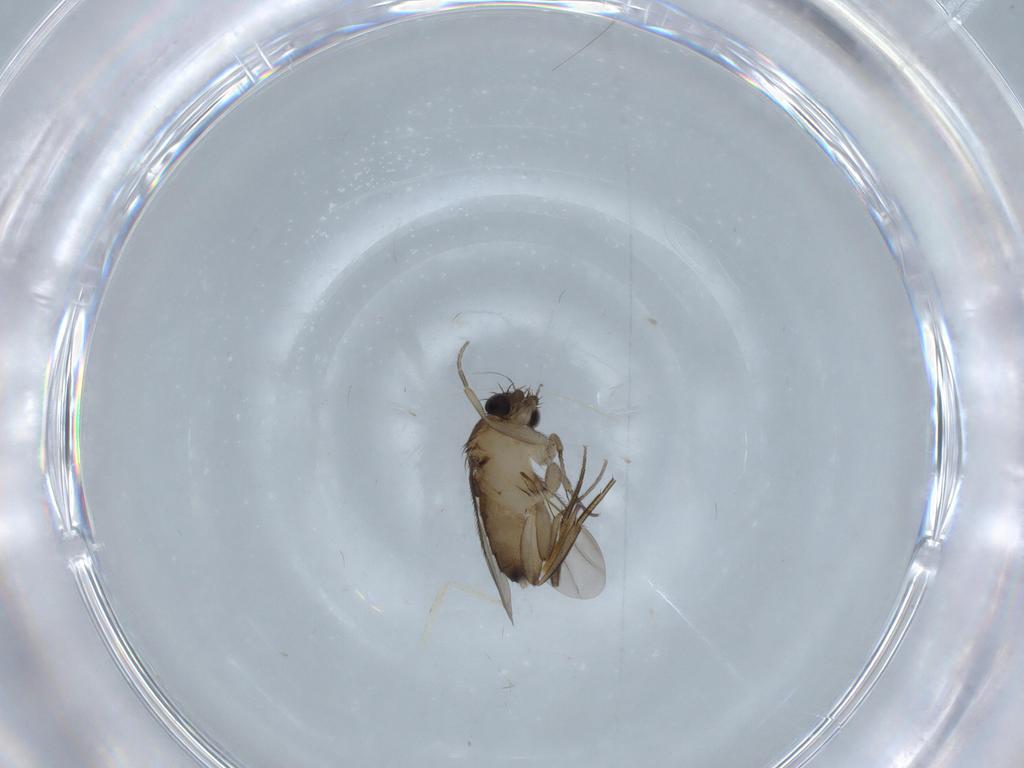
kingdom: Animalia
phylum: Arthropoda
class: Insecta
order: Diptera
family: Phoridae
